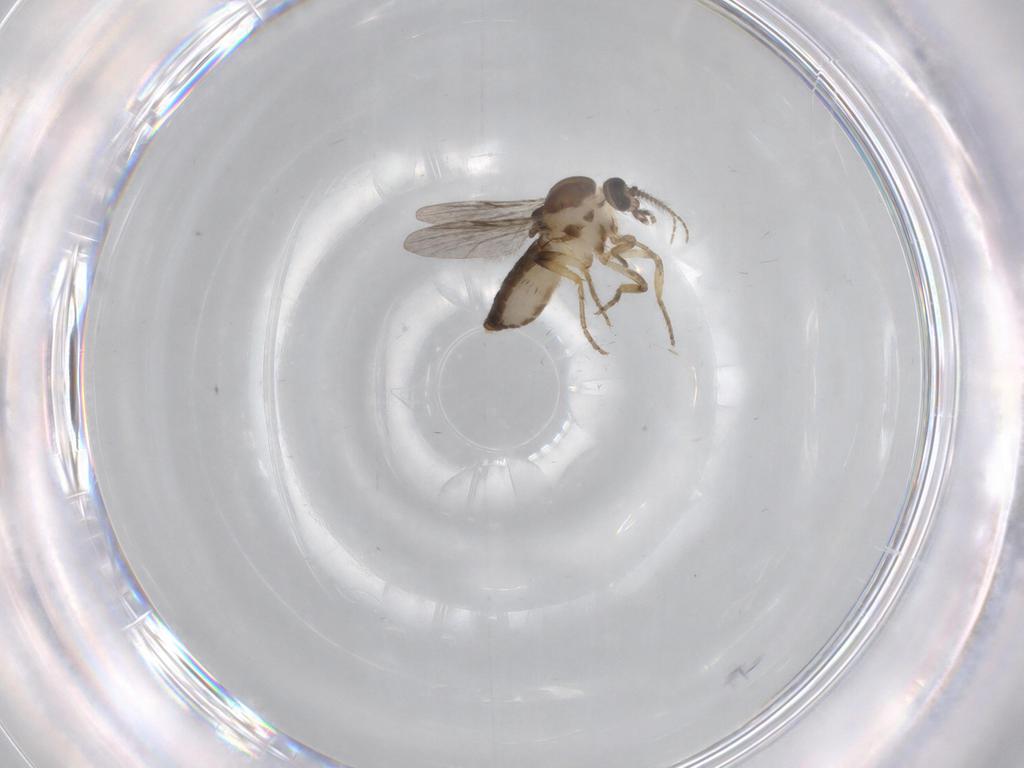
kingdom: Animalia
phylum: Arthropoda
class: Insecta
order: Diptera
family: Ceratopogonidae
